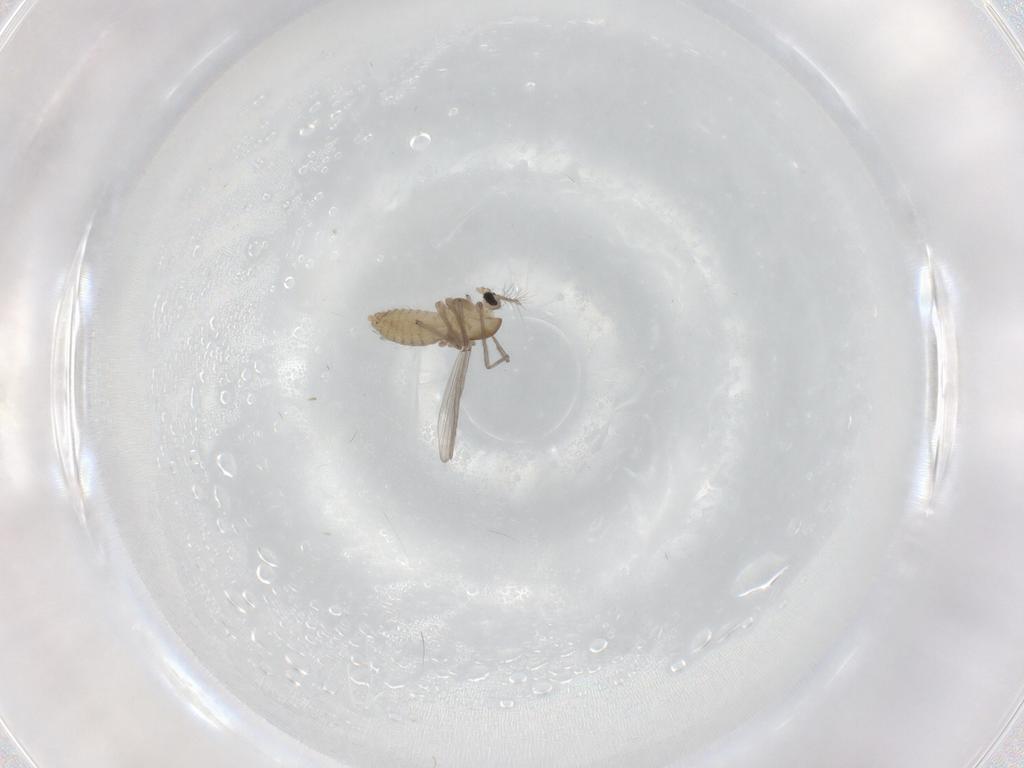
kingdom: Animalia
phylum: Arthropoda
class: Insecta
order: Diptera
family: Chironomidae
